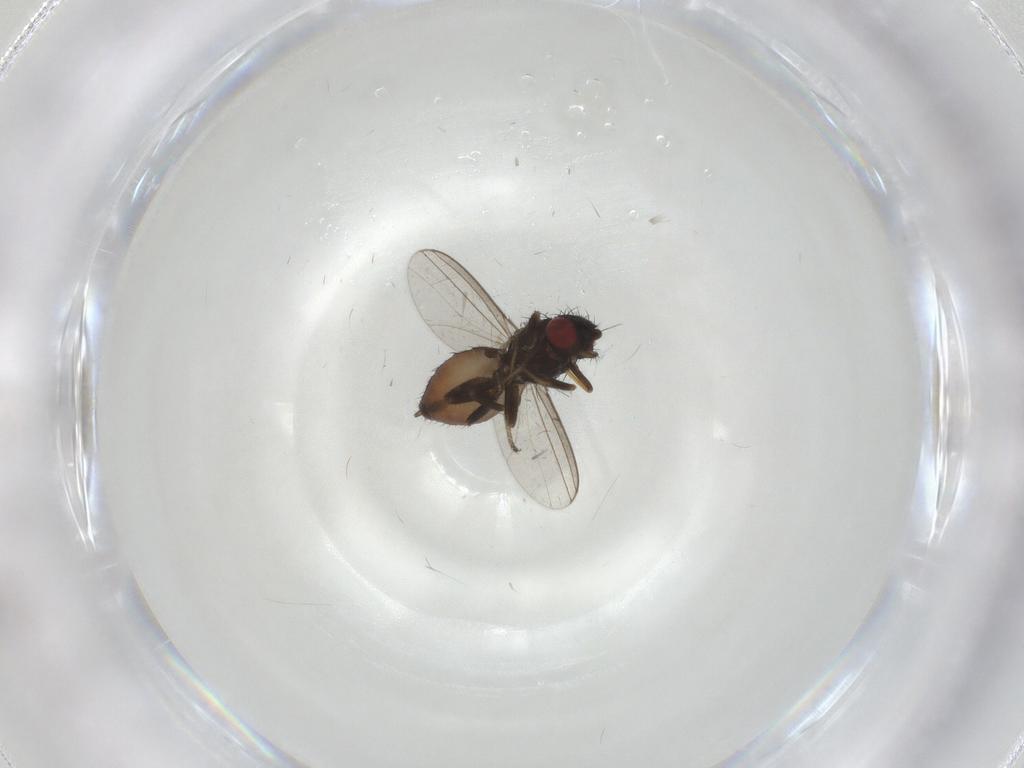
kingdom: Animalia
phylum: Arthropoda
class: Insecta
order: Diptera
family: Milichiidae
